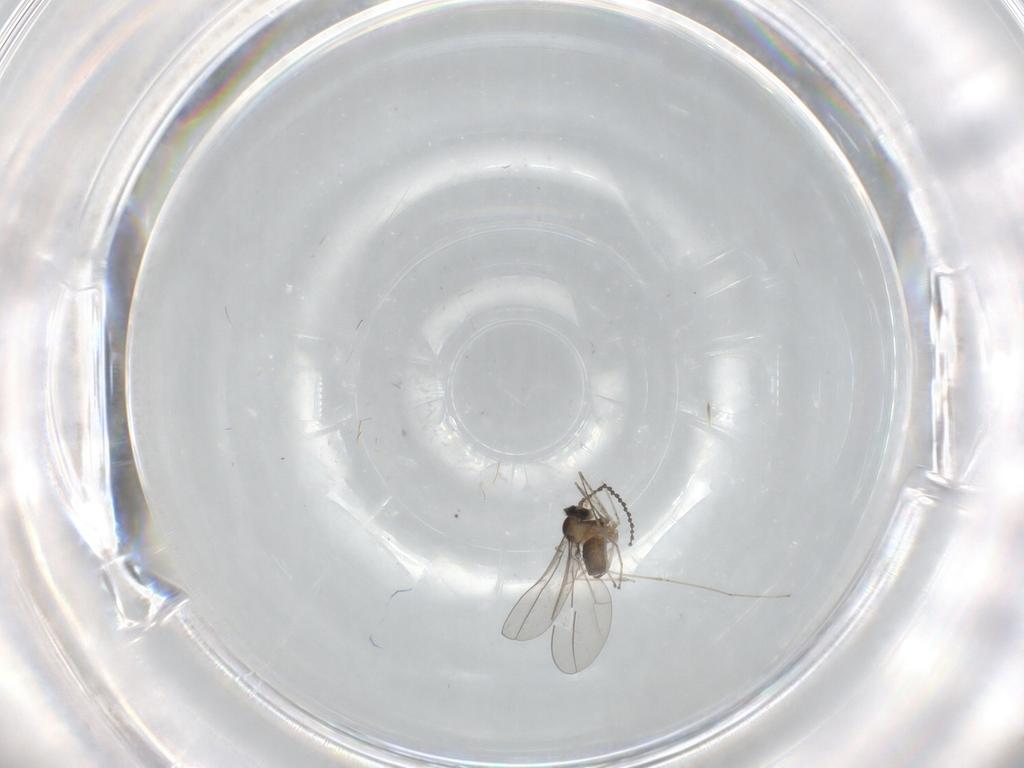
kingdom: Animalia
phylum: Arthropoda
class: Insecta
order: Diptera
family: Cecidomyiidae
